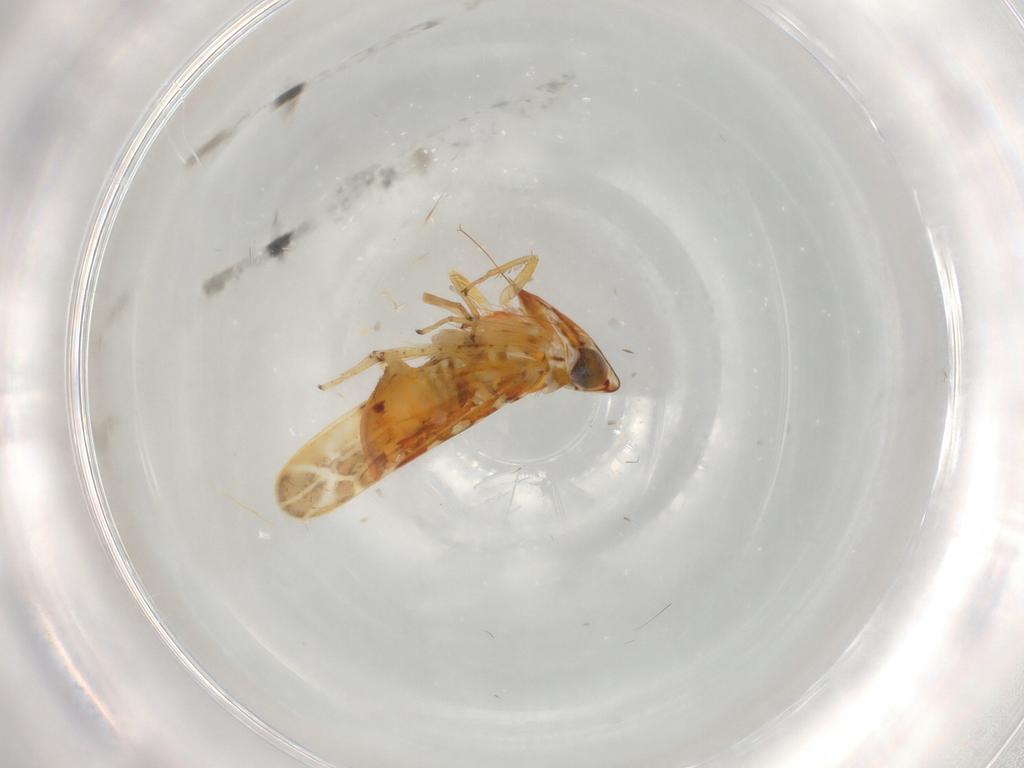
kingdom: Animalia
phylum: Arthropoda
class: Insecta
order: Hemiptera
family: Cicadellidae
